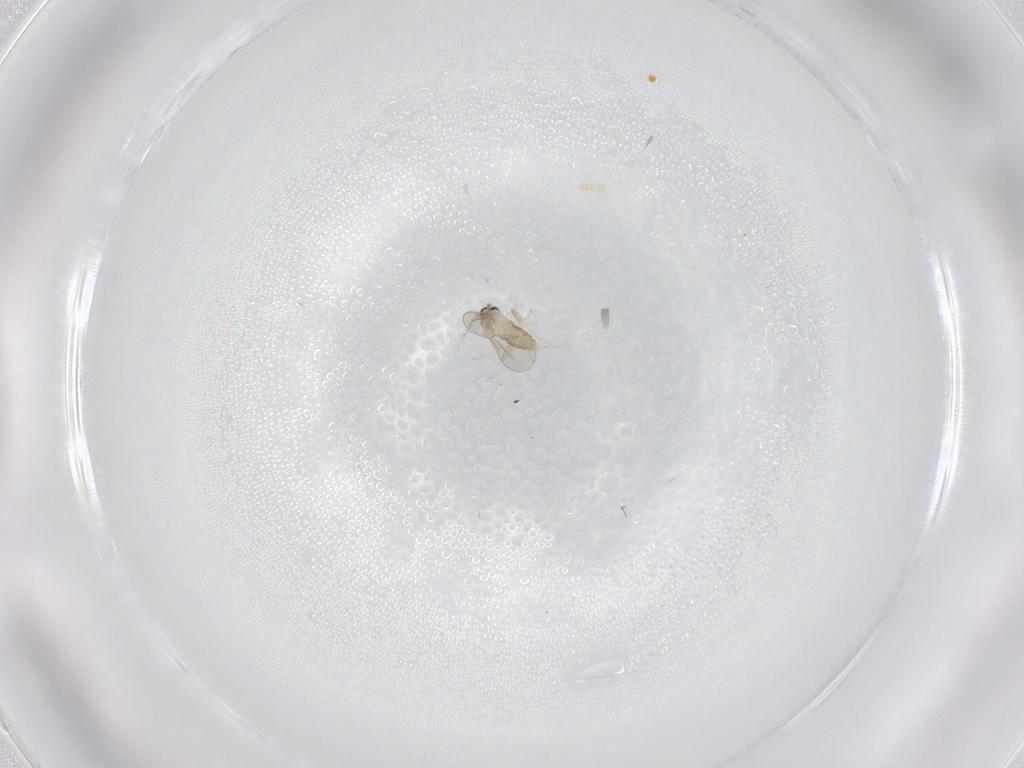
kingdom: Animalia
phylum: Arthropoda
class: Insecta
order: Diptera
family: Cecidomyiidae
